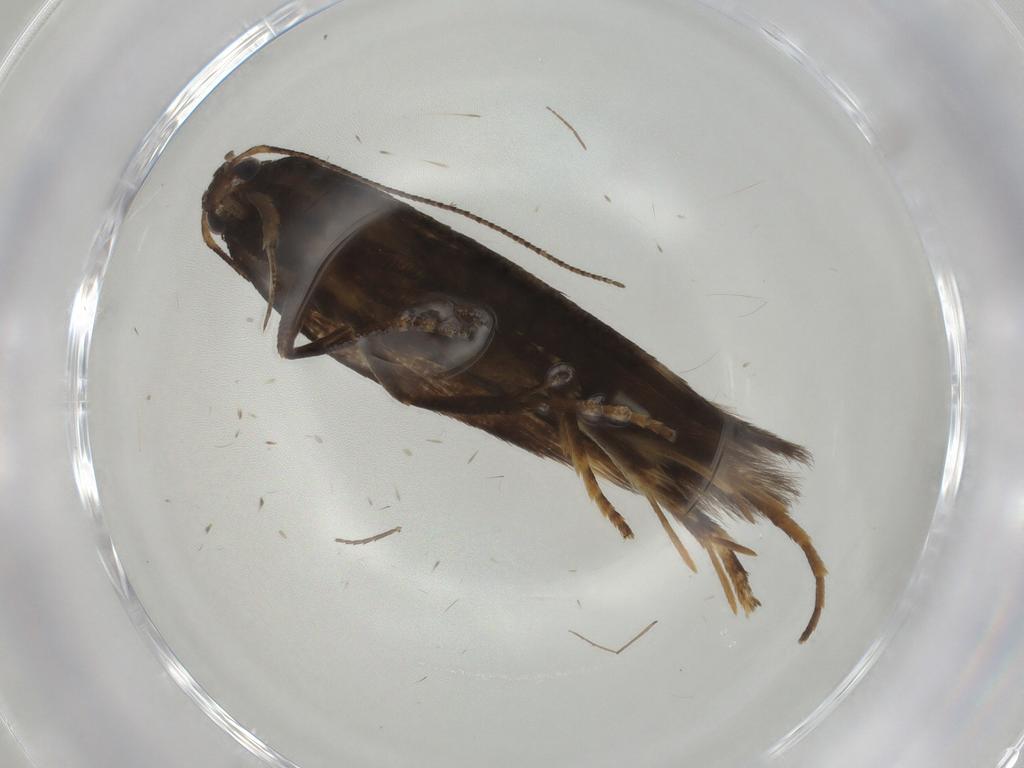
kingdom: Animalia
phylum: Arthropoda
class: Insecta
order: Lepidoptera
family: Gelechiidae
